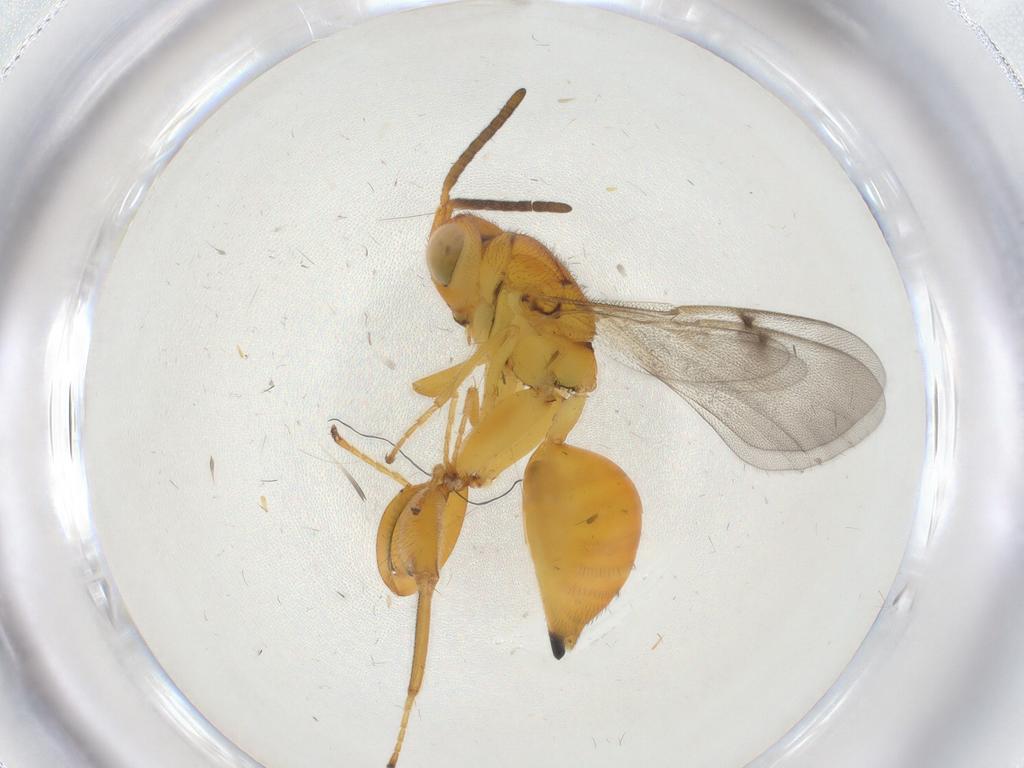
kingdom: Animalia
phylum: Arthropoda
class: Insecta
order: Hymenoptera
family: Chalcididae
